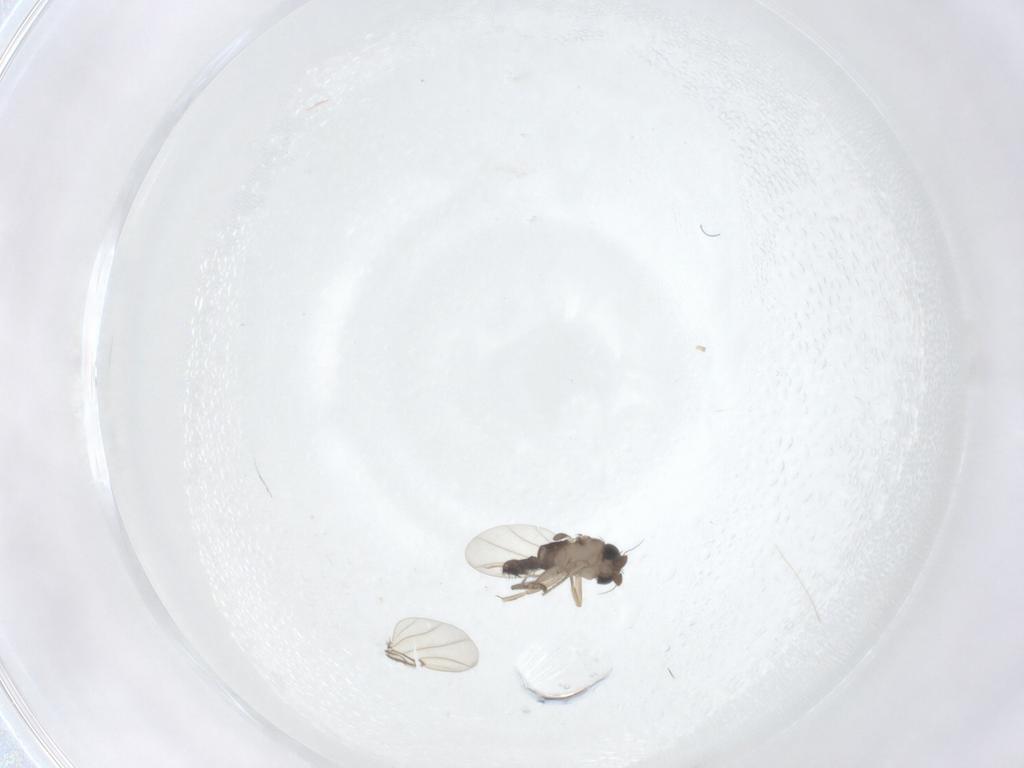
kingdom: Animalia
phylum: Arthropoda
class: Insecta
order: Diptera
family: Phoridae
